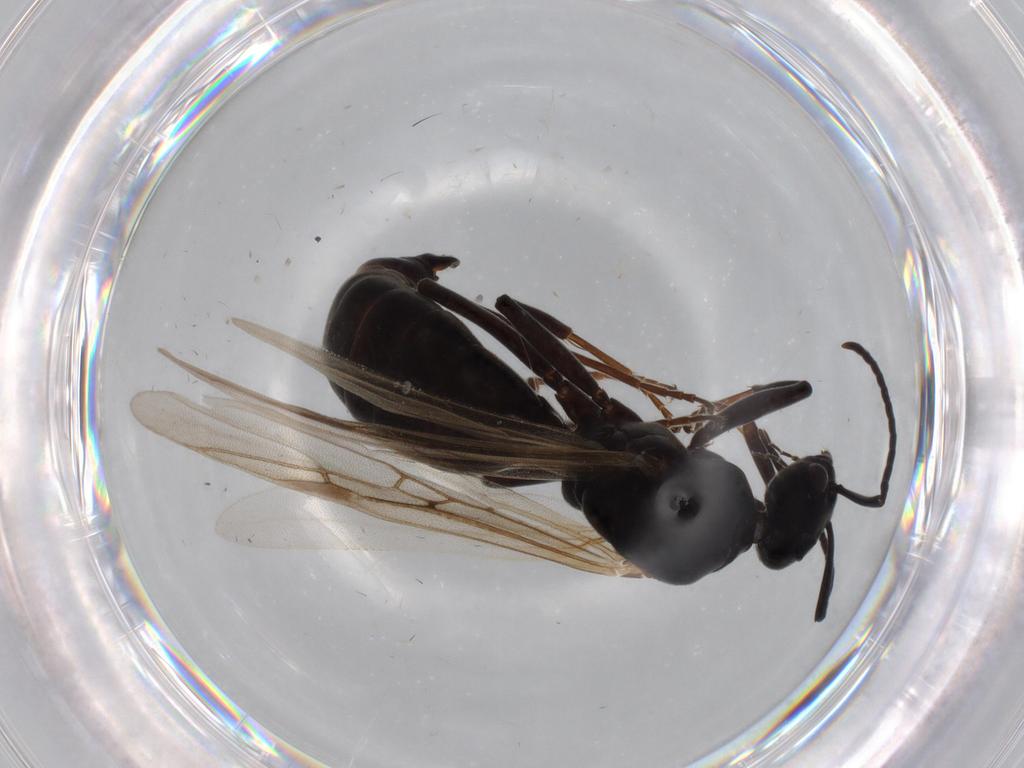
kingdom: Animalia
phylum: Arthropoda
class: Insecta
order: Hymenoptera
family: Formicidae
